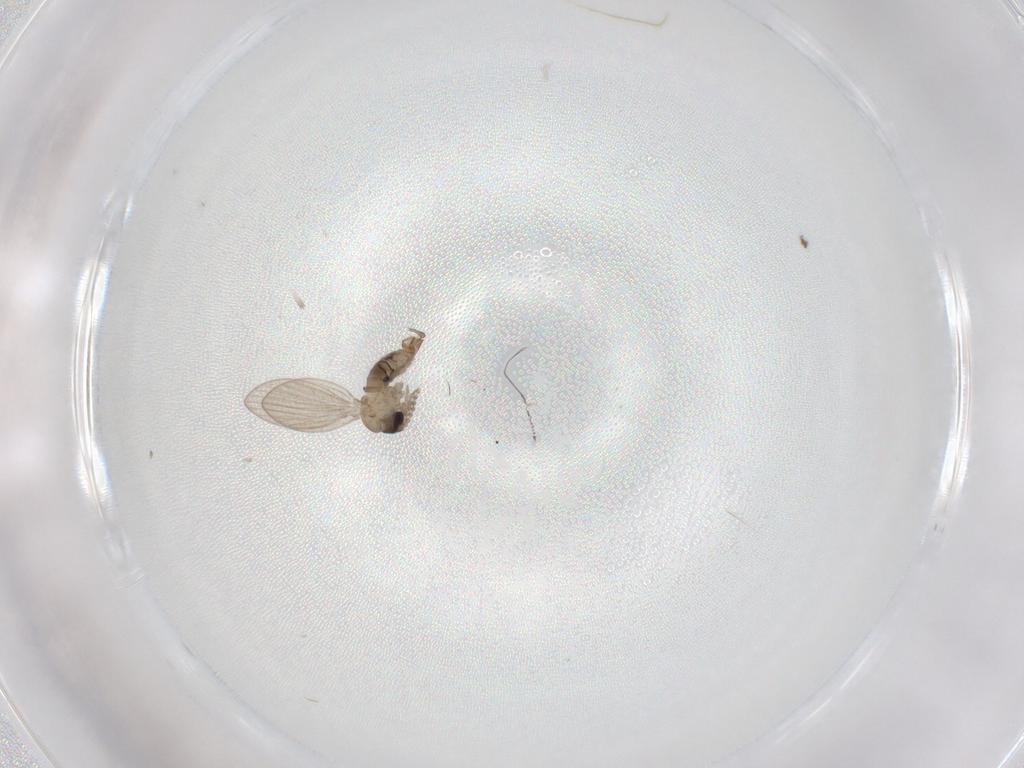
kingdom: Animalia
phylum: Arthropoda
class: Insecta
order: Diptera
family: Psychodidae
